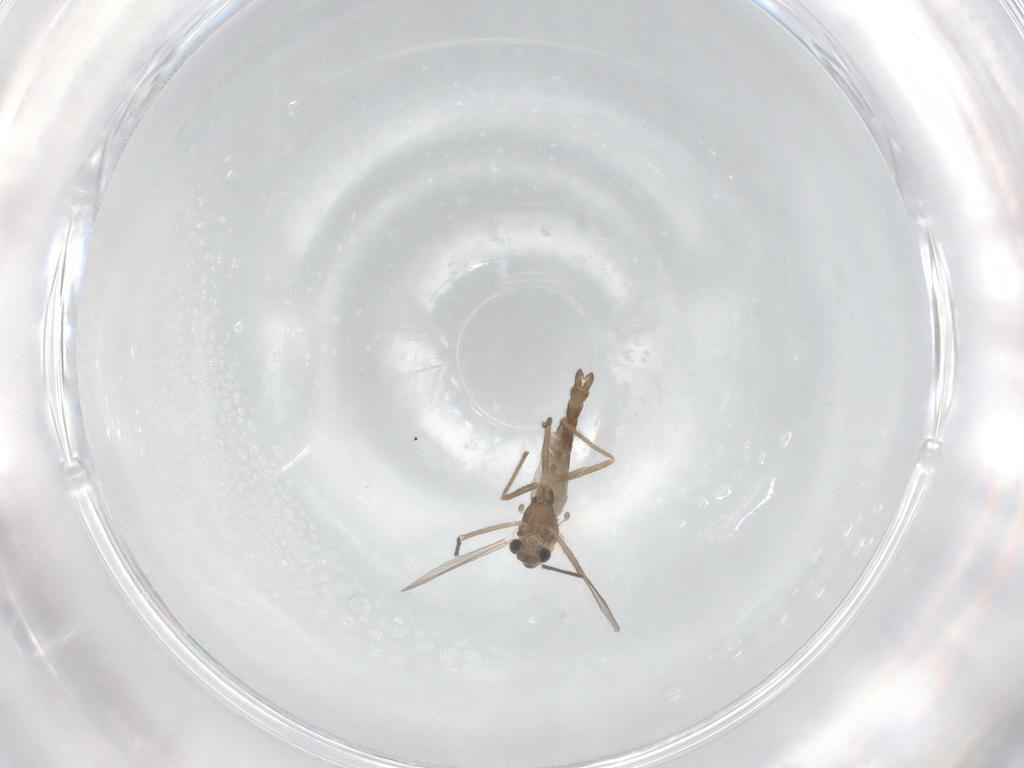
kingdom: Animalia
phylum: Arthropoda
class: Insecta
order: Diptera
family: Chironomidae
